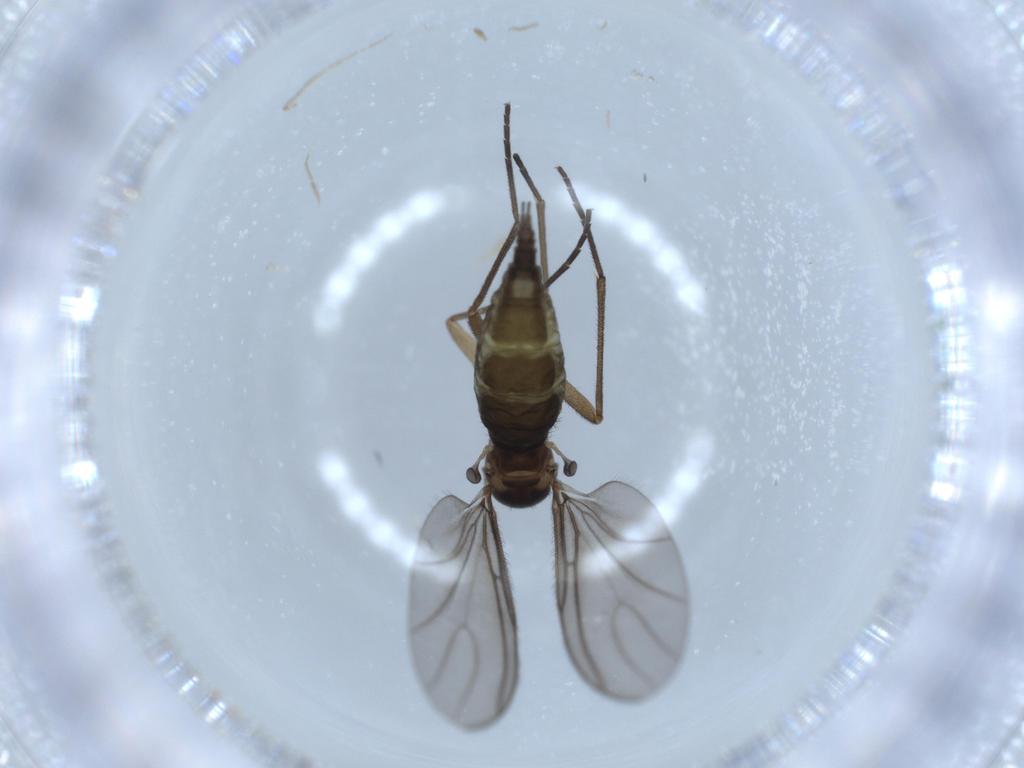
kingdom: Animalia
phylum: Arthropoda
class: Insecta
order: Diptera
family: Sciaridae
